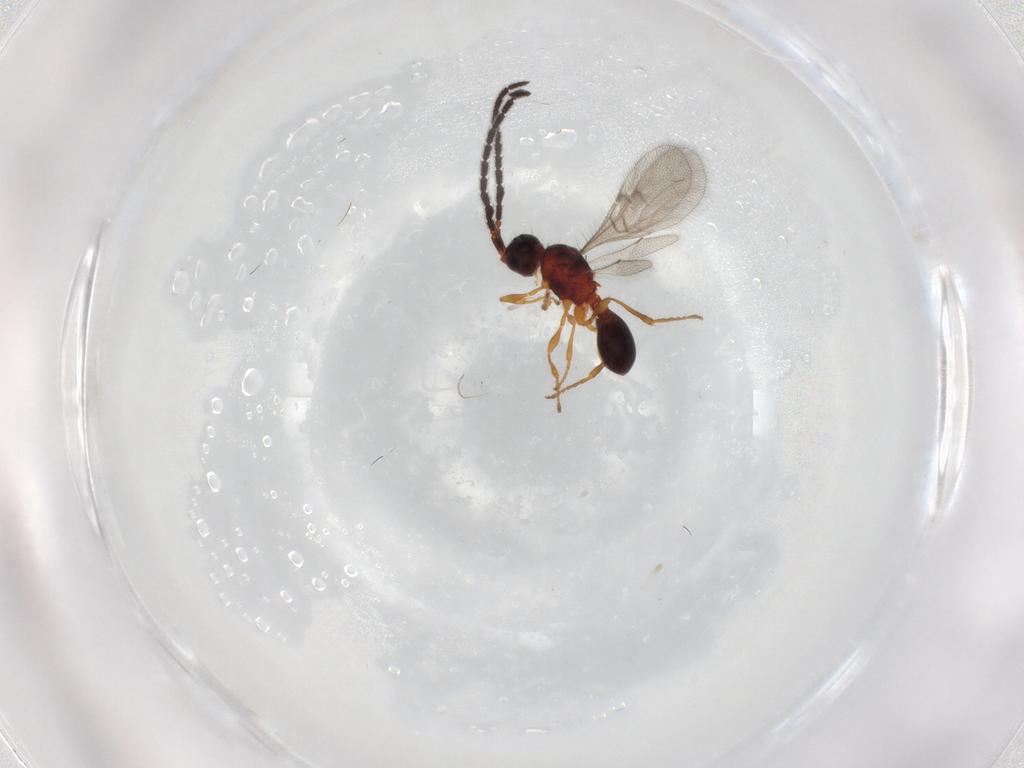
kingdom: Animalia
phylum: Arthropoda
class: Insecta
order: Hymenoptera
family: Diapriidae
